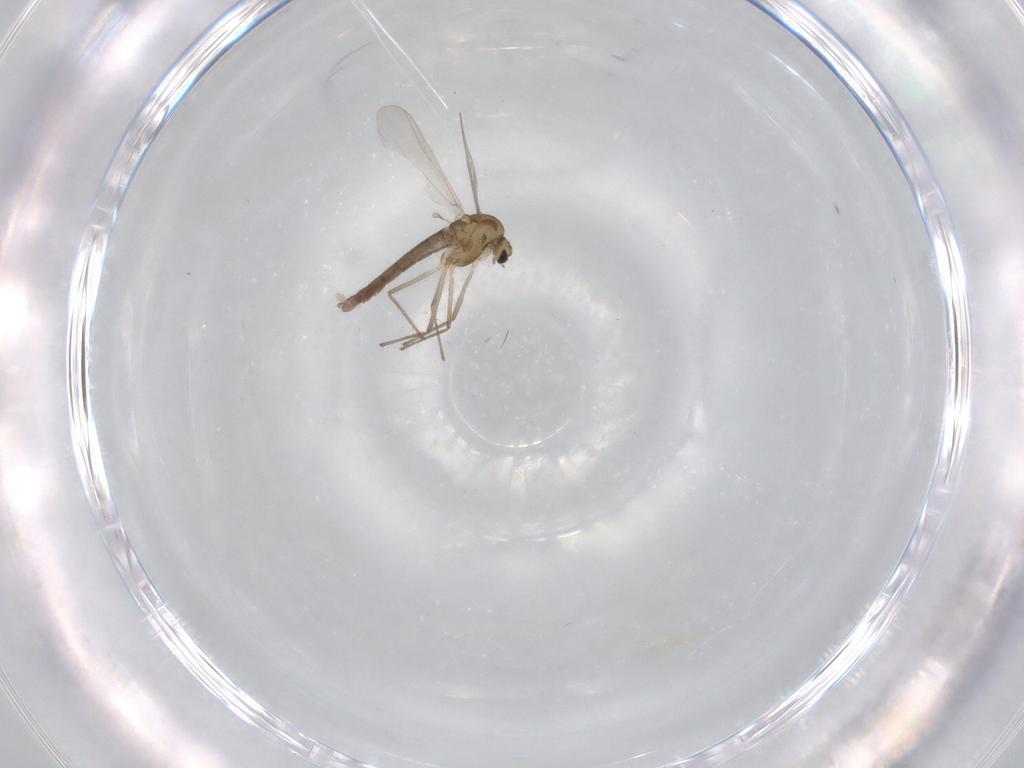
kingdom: Animalia
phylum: Arthropoda
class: Insecta
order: Diptera
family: Chironomidae
